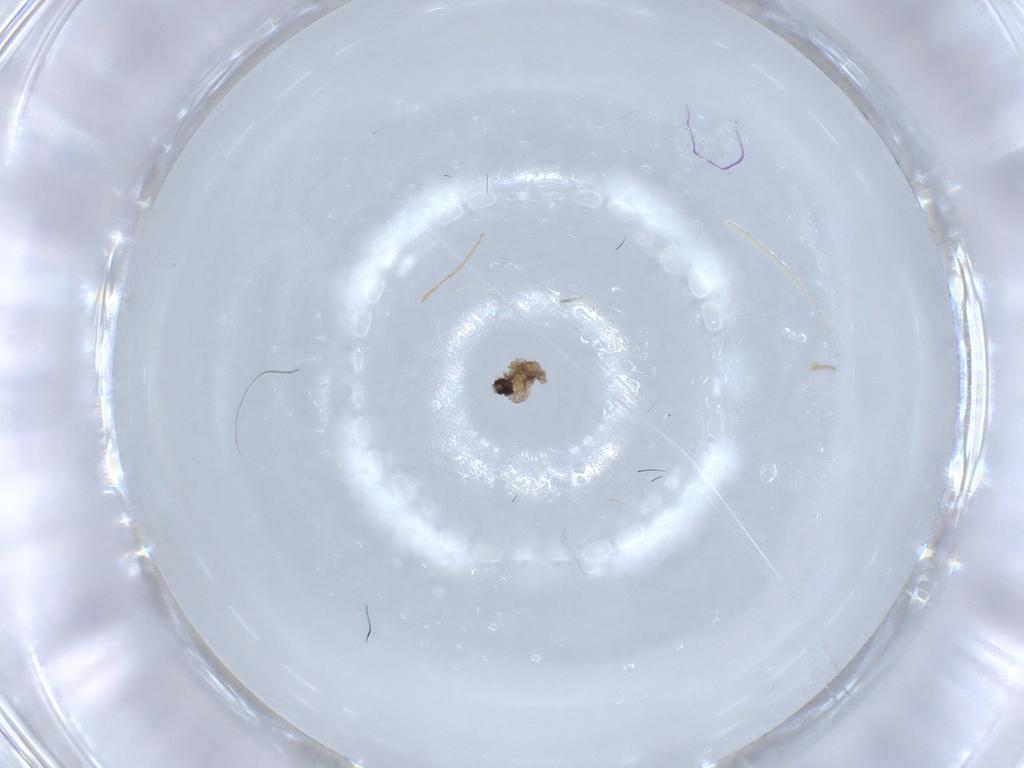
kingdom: Animalia
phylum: Arthropoda
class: Insecta
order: Diptera
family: Cecidomyiidae
